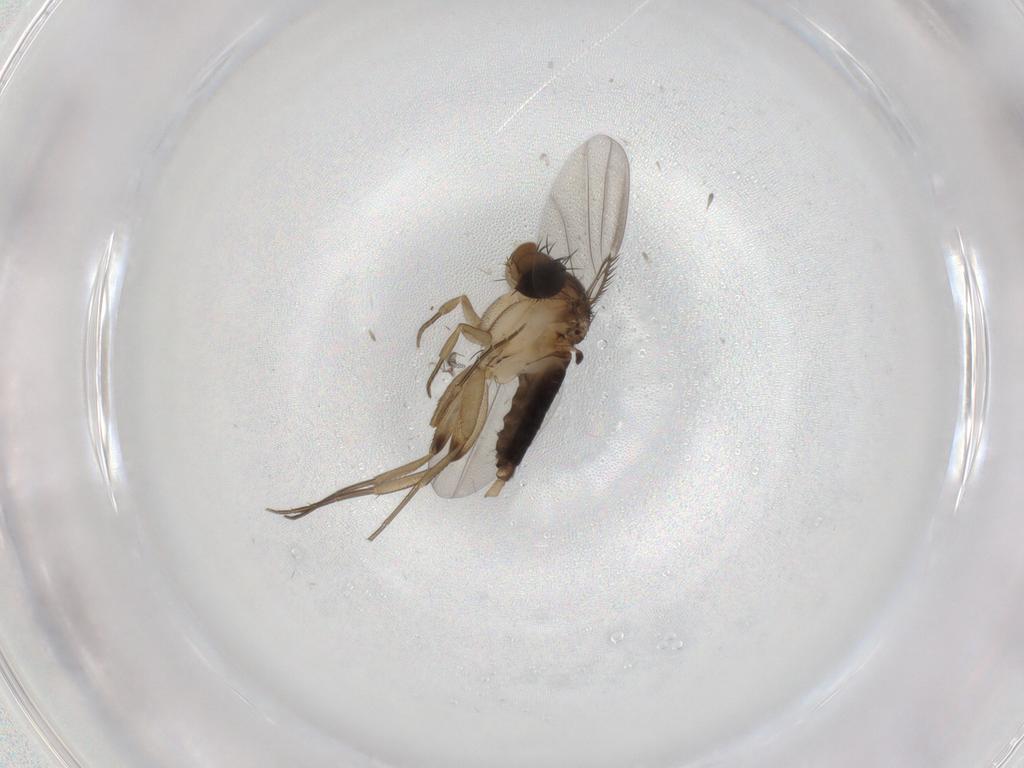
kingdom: Animalia
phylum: Arthropoda
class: Insecta
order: Diptera
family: Phoridae
